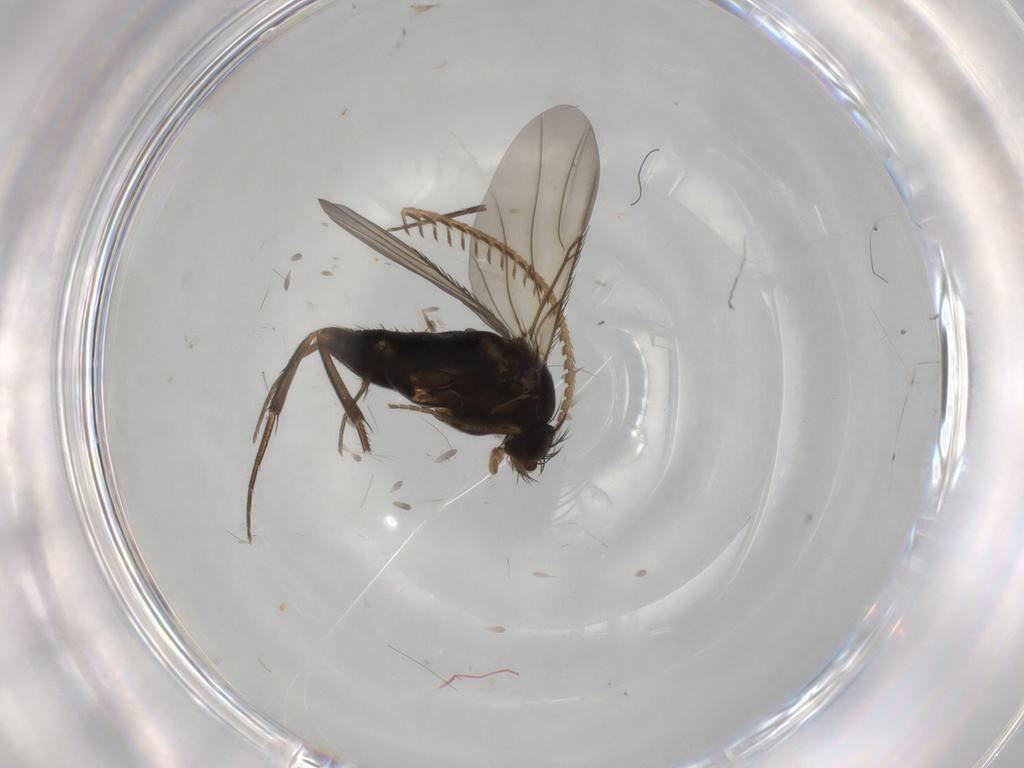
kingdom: Animalia
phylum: Arthropoda
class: Insecta
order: Diptera
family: Phoridae
